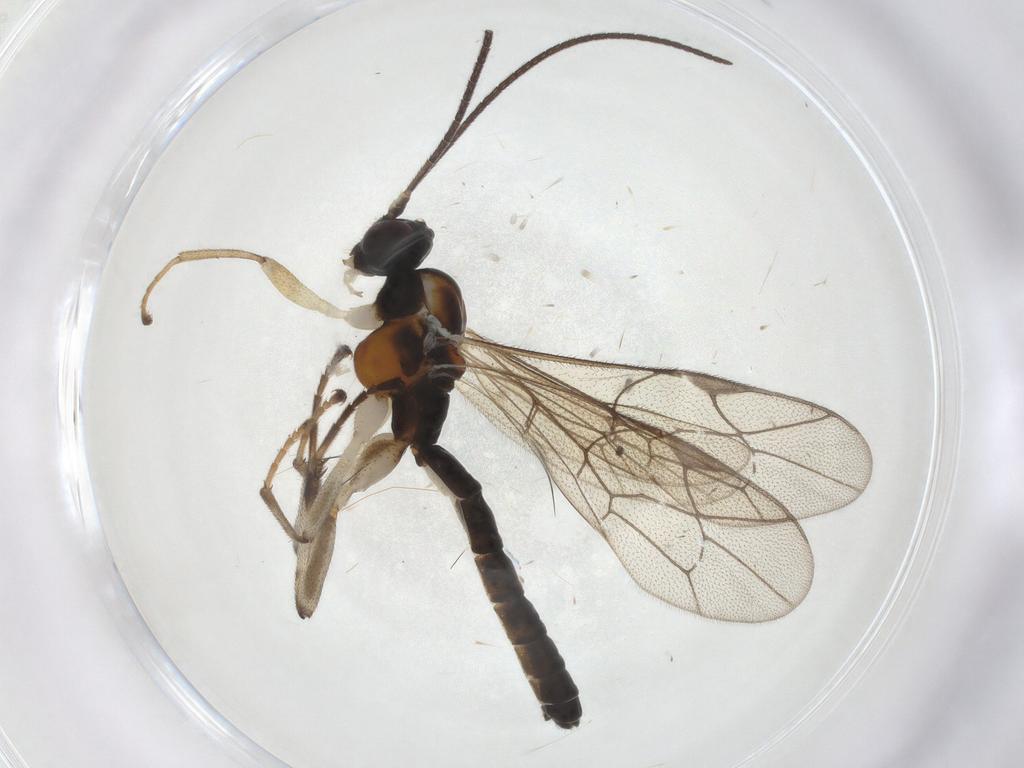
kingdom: Animalia
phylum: Arthropoda
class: Insecta
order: Hymenoptera
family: Ichneumonidae
